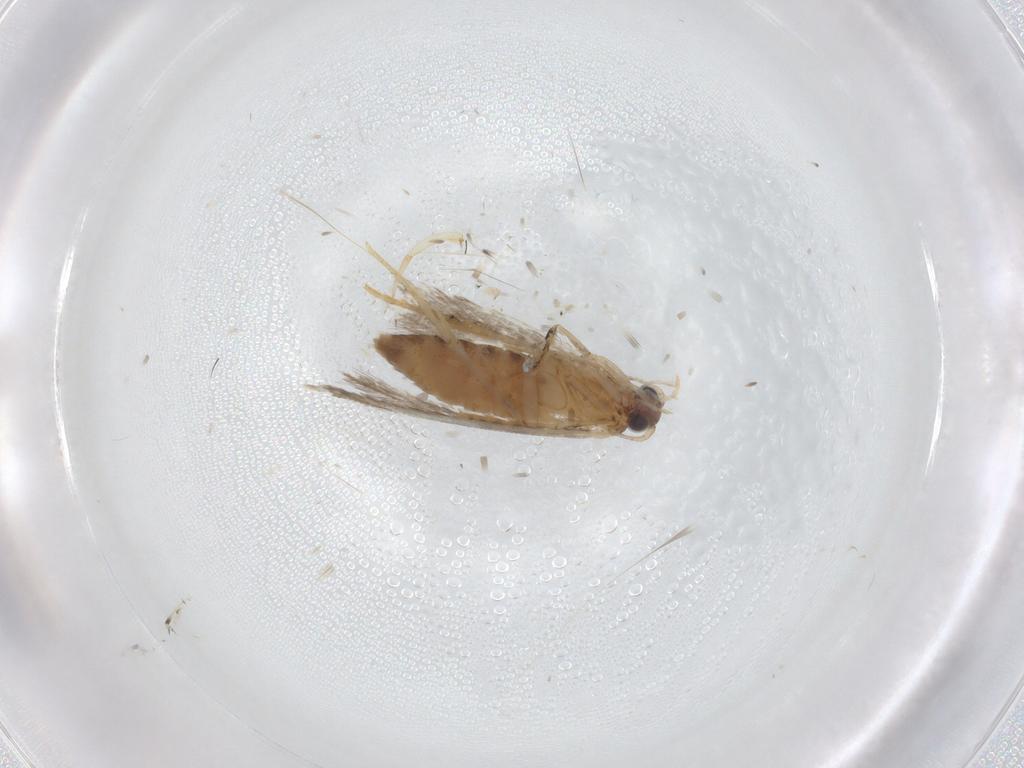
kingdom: Animalia
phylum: Arthropoda
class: Insecta
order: Lepidoptera
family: Tineidae
